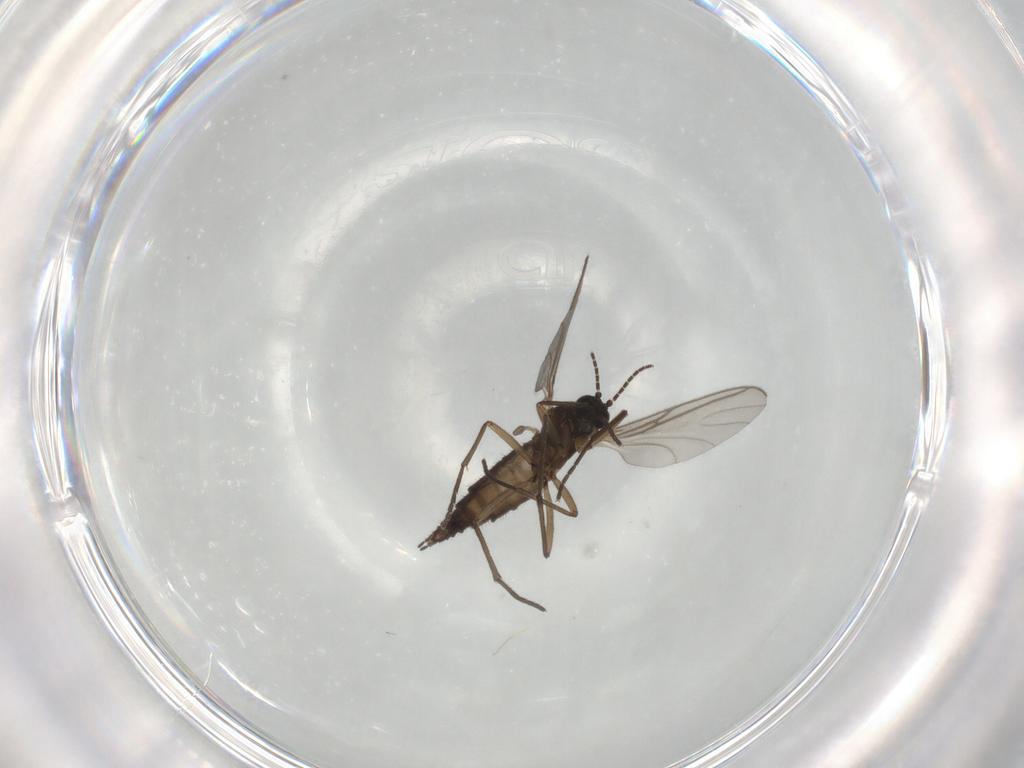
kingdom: Animalia
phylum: Arthropoda
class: Insecta
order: Diptera
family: Sciaridae
